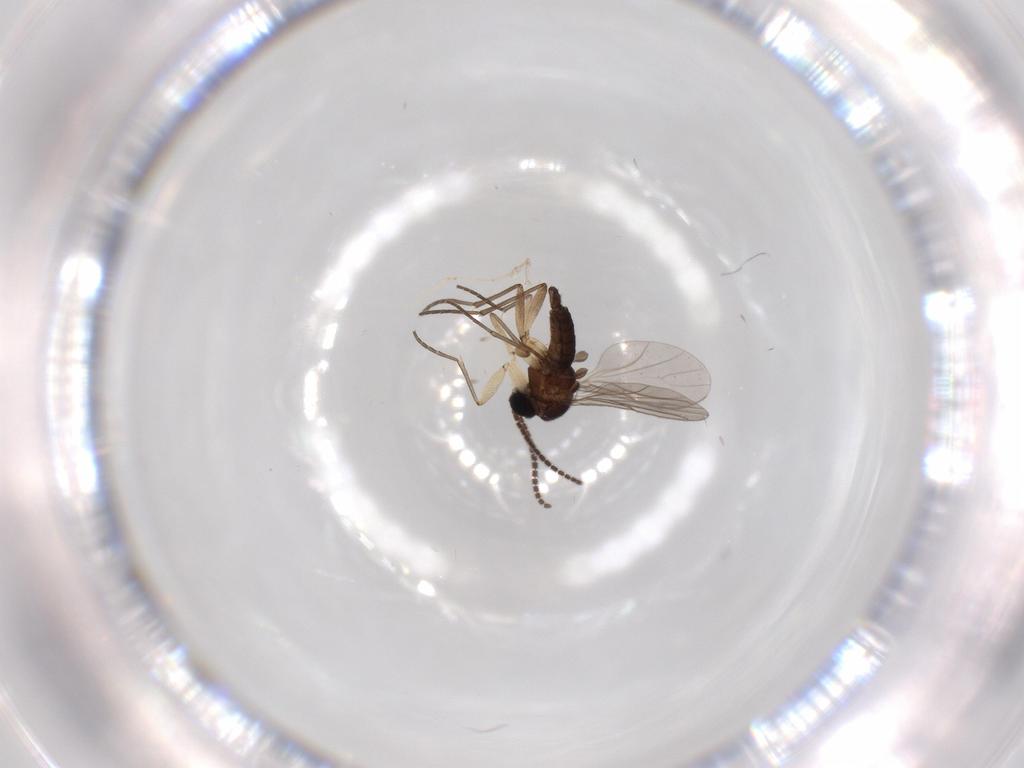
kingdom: Animalia
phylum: Arthropoda
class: Insecta
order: Diptera
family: Sciaridae
